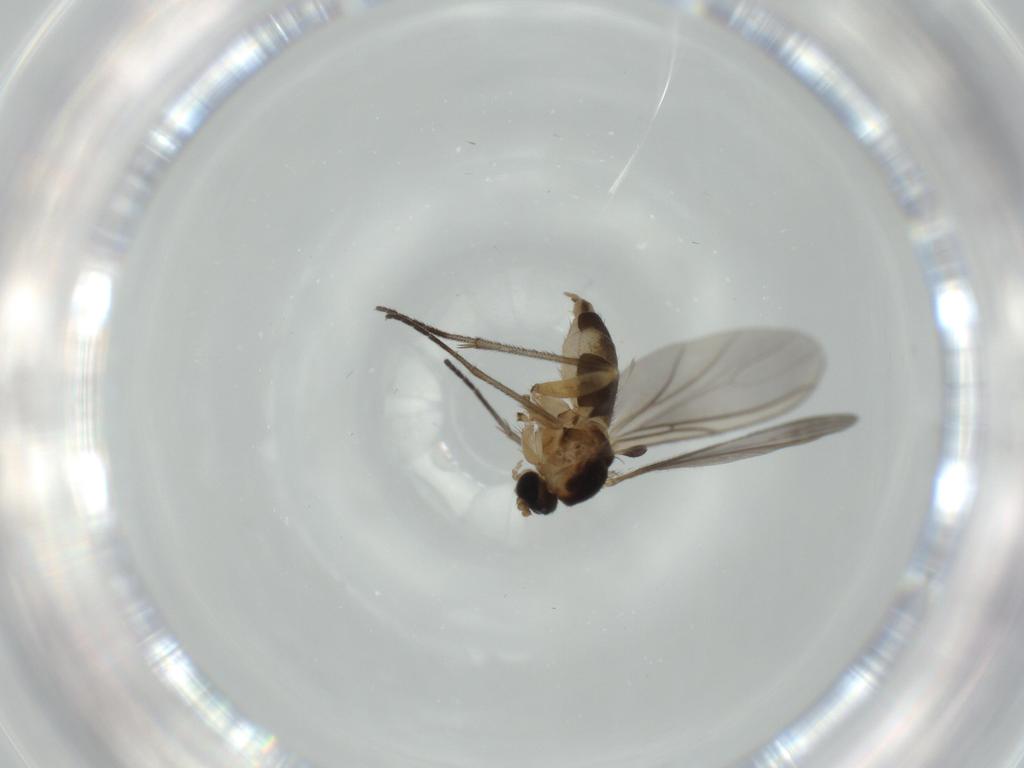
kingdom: Animalia
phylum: Arthropoda
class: Insecta
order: Diptera
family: Sciaridae
